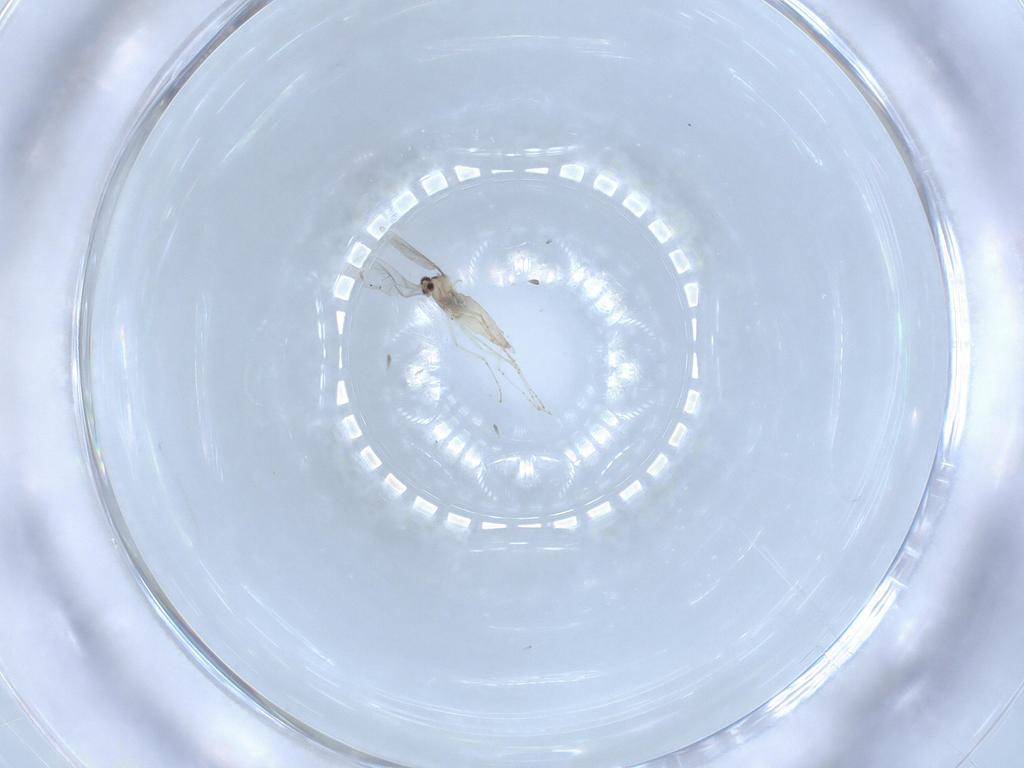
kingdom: Animalia
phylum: Arthropoda
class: Insecta
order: Diptera
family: Cecidomyiidae
